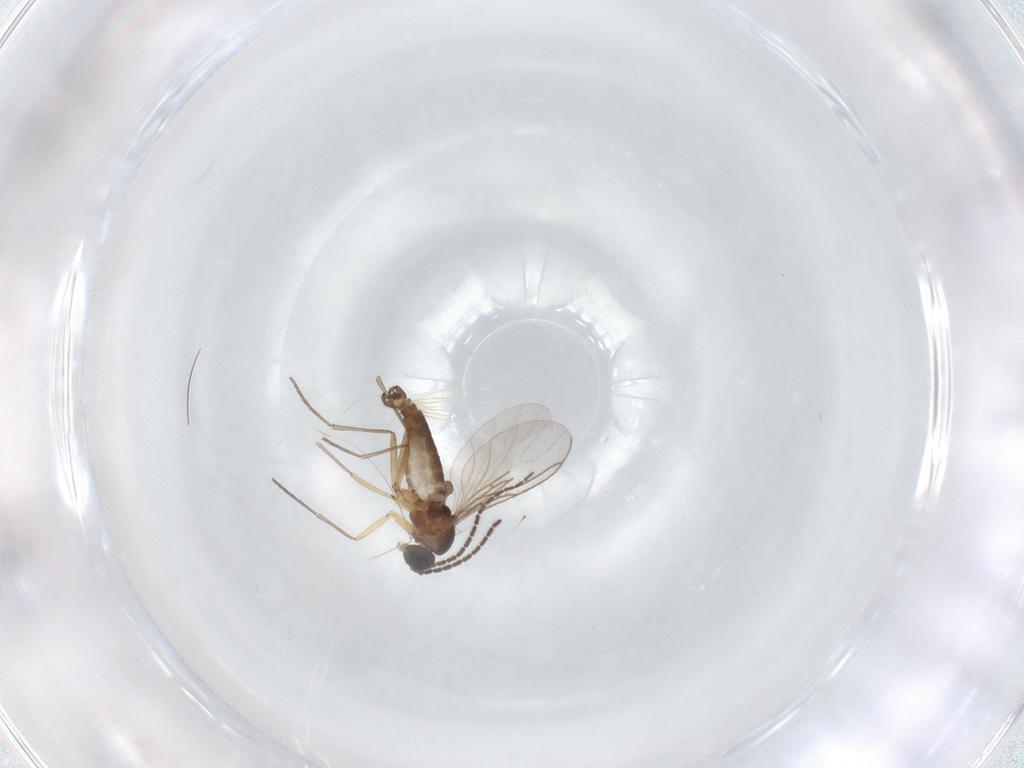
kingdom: Animalia
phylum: Arthropoda
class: Insecta
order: Diptera
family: Sciaridae
